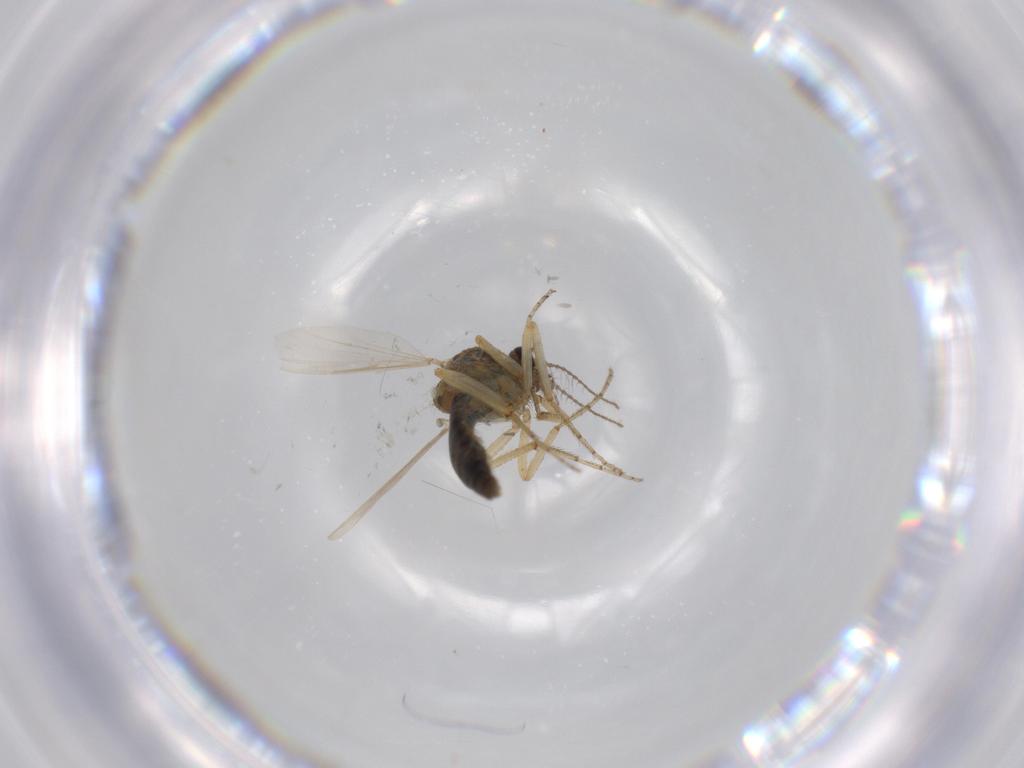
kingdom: Animalia
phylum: Arthropoda
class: Insecta
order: Diptera
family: Ceratopogonidae
